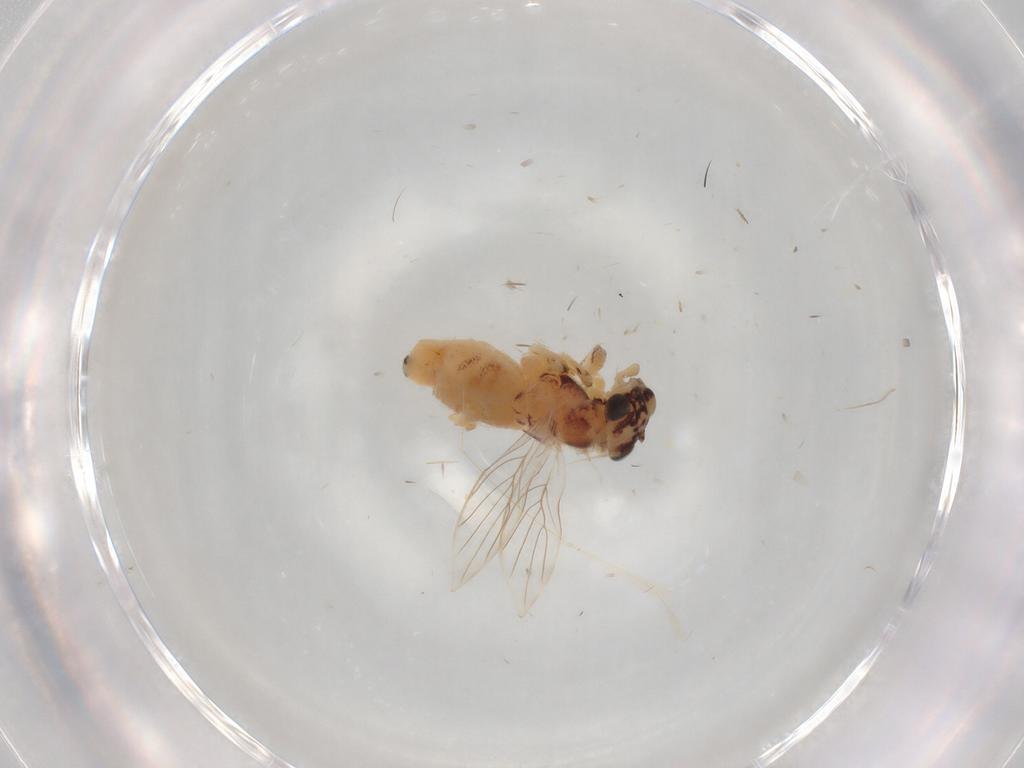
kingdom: Animalia
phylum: Arthropoda
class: Insecta
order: Psocodea
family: Lepidopsocidae
